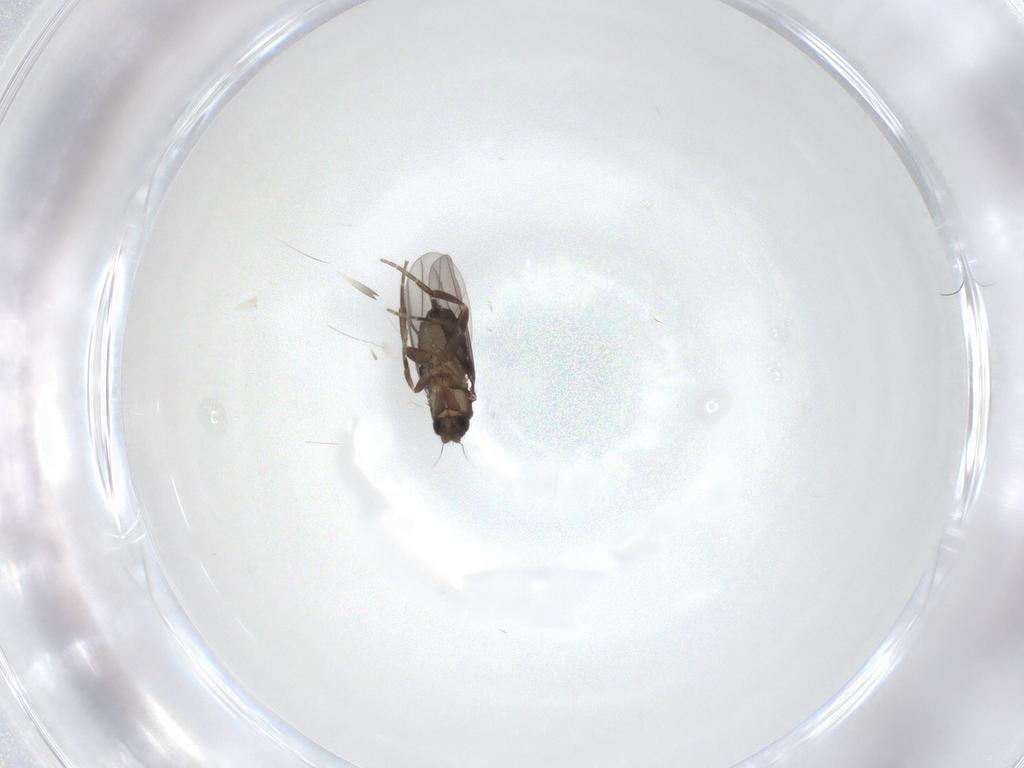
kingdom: Animalia
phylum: Arthropoda
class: Insecta
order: Diptera
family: Phoridae
